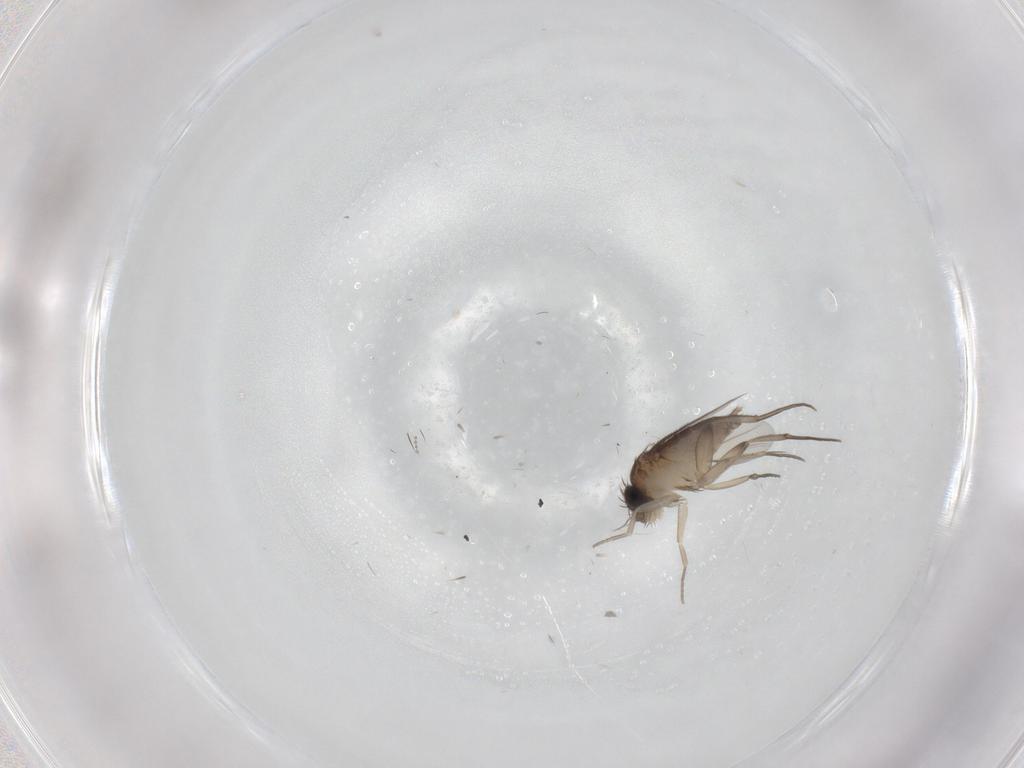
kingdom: Animalia
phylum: Arthropoda
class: Insecta
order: Diptera
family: Phoridae
